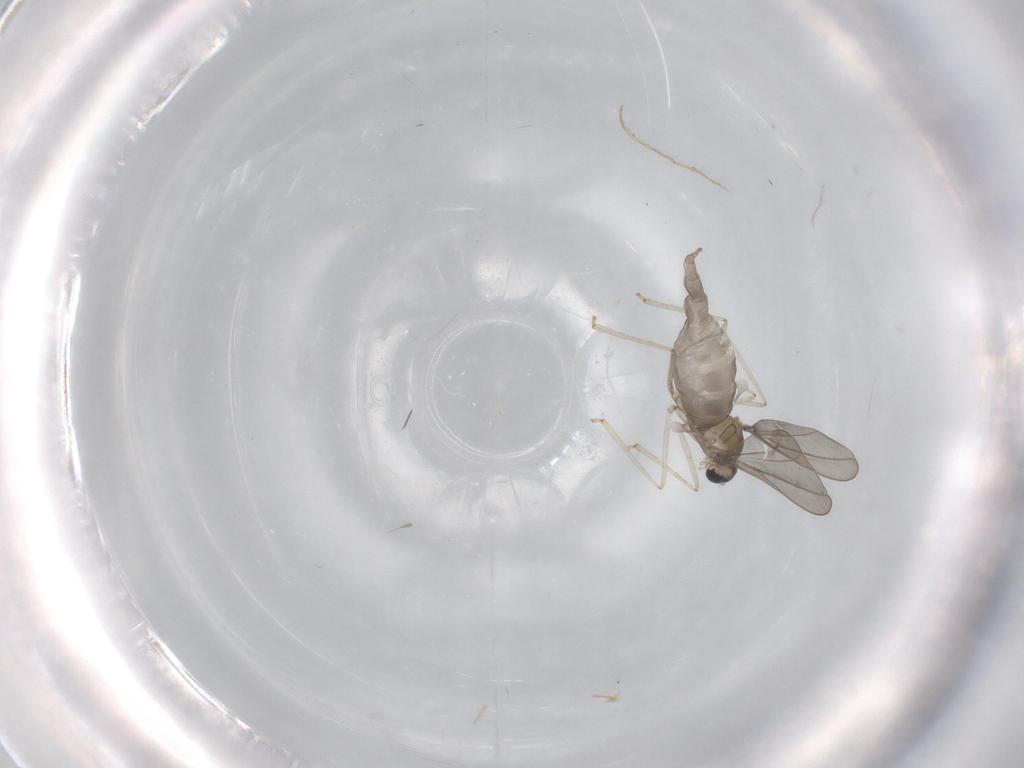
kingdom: Animalia
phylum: Arthropoda
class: Insecta
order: Diptera
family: Cecidomyiidae
